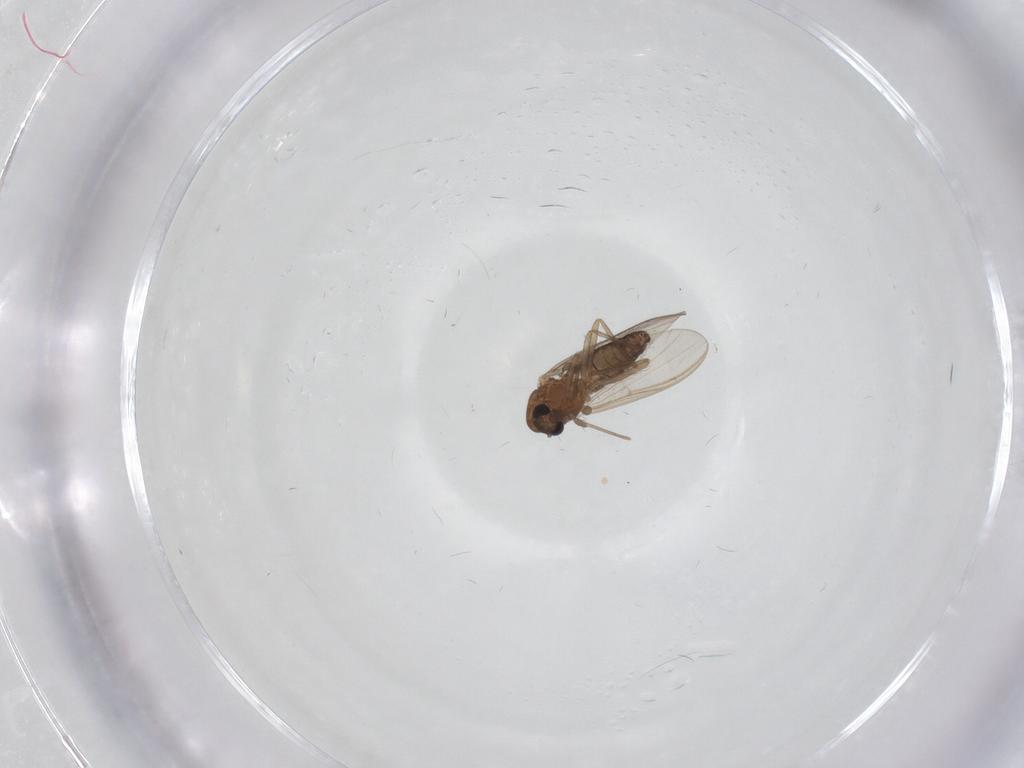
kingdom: Animalia
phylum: Arthropoda
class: Insecta
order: Diptera
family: Chironomidae
